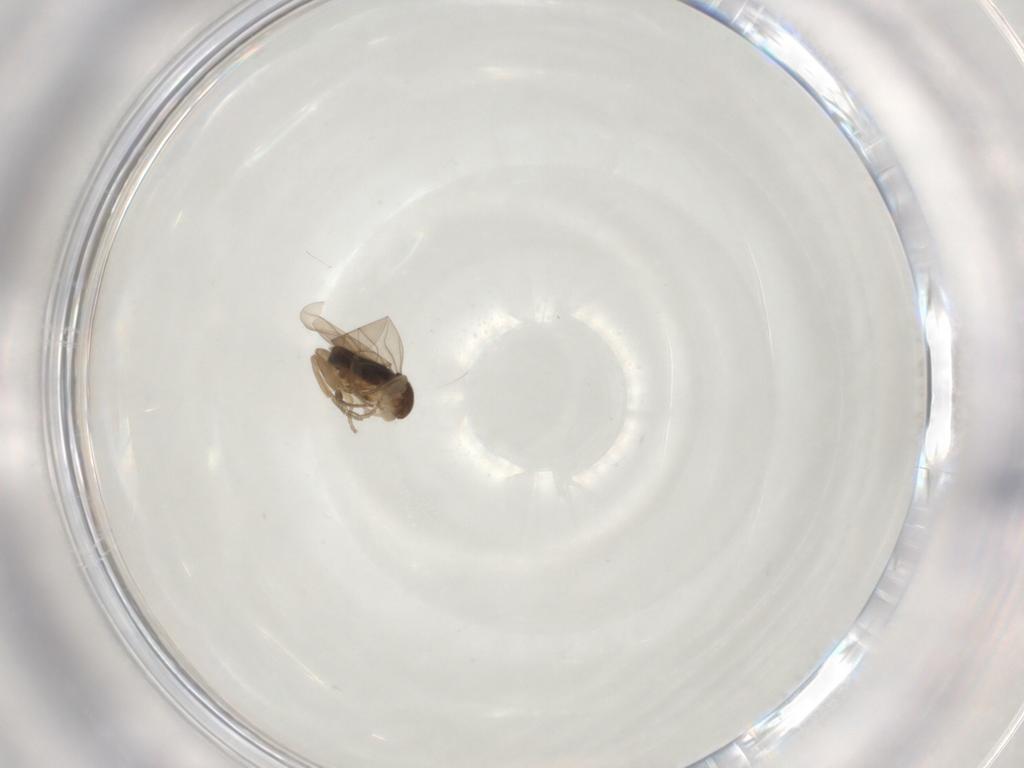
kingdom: Animalia
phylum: Arthropoda
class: Insecta
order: Diptera
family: Phoridae
